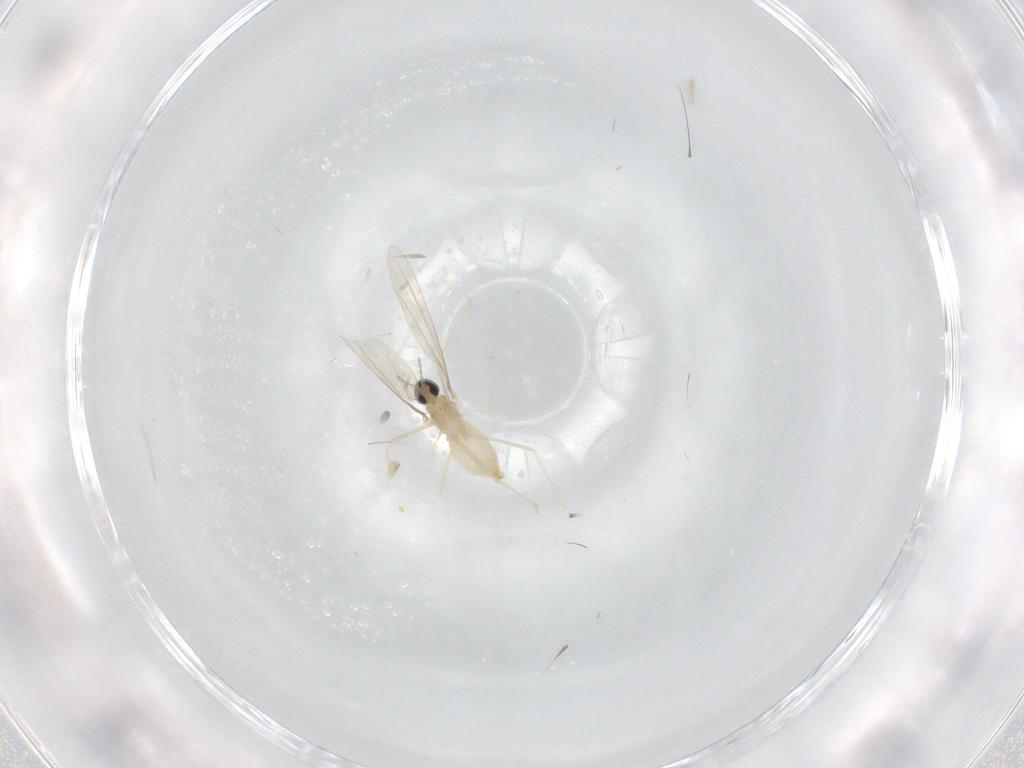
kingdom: Animalia
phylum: Arthropoda
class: Insecta
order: Diptera
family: Cecidomyiidae
